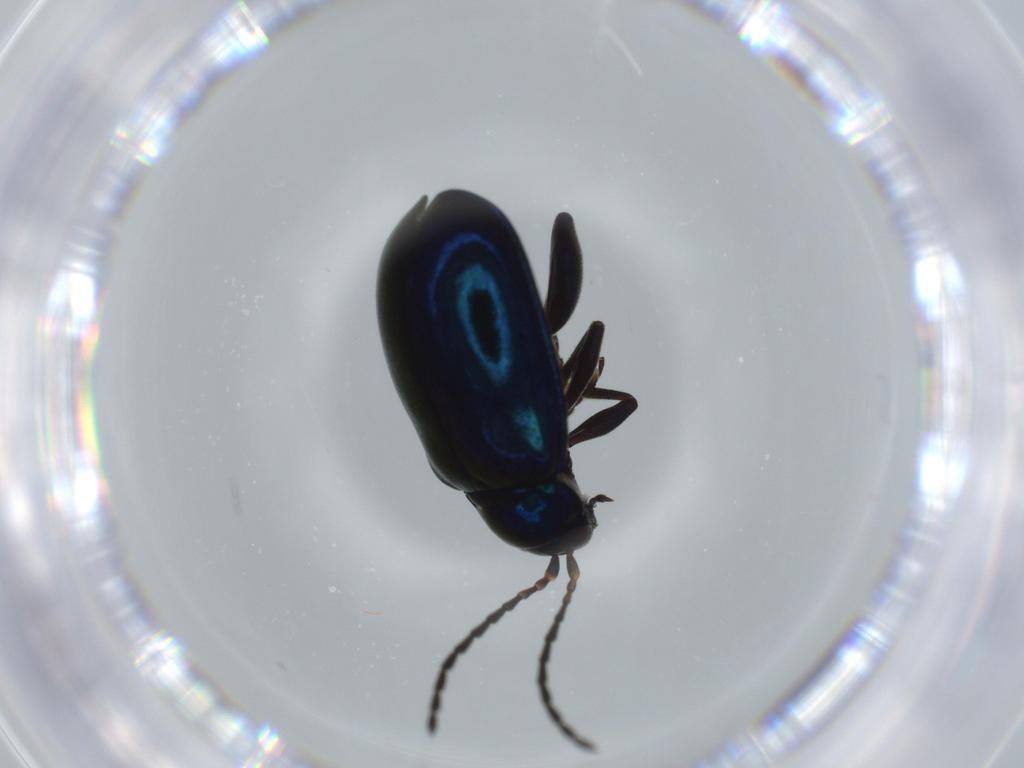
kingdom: Animalia
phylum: Arthropoda
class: Insecta
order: Coleoptera
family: Chrysomelidae
